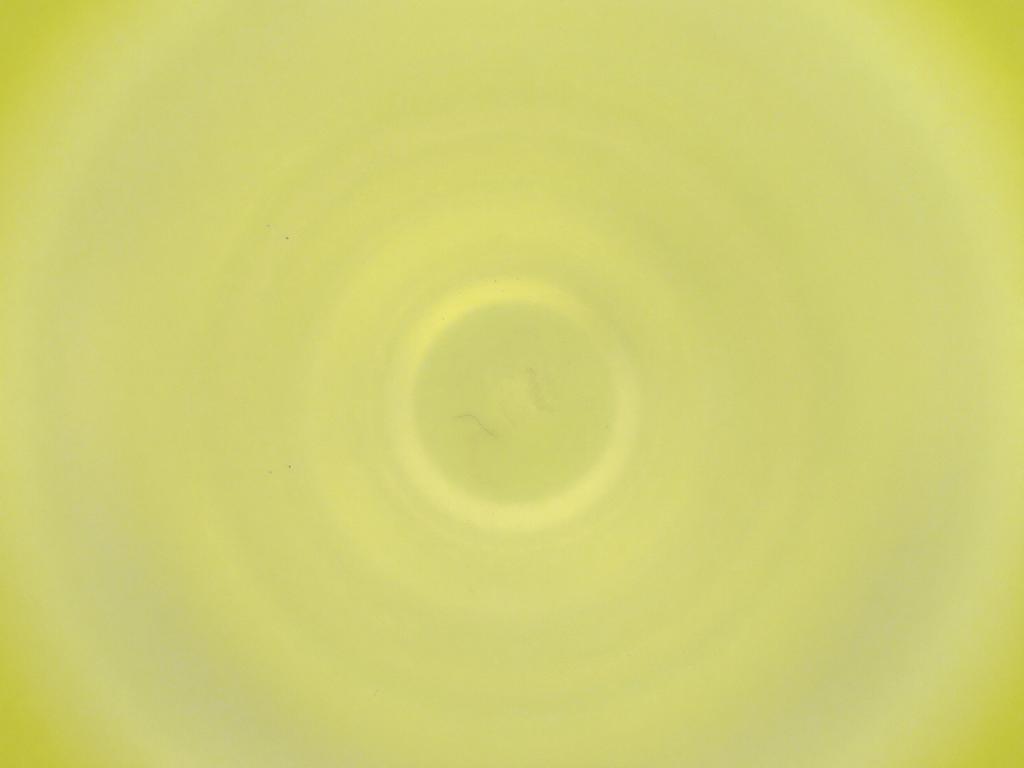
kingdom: Animalia
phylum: Arthropoda
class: Insecta
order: Diptera
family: Cecidomyiidae
